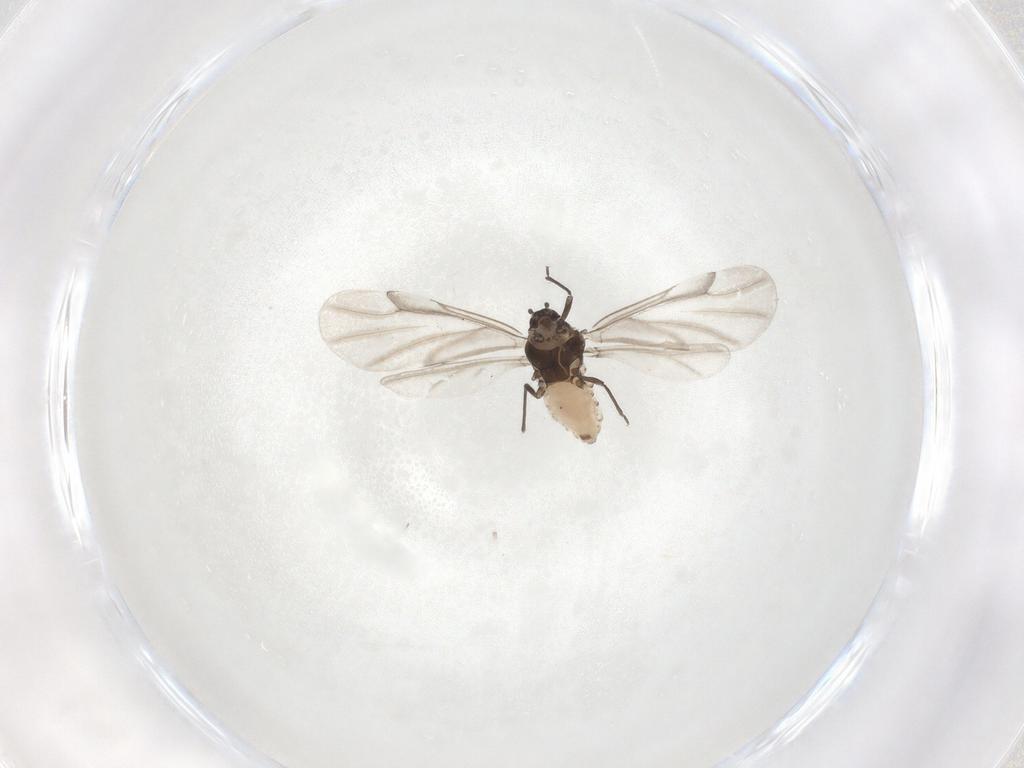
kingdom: Animalia
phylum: Arthropoda
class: Insecta
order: Hemiptera
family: Aphididae
